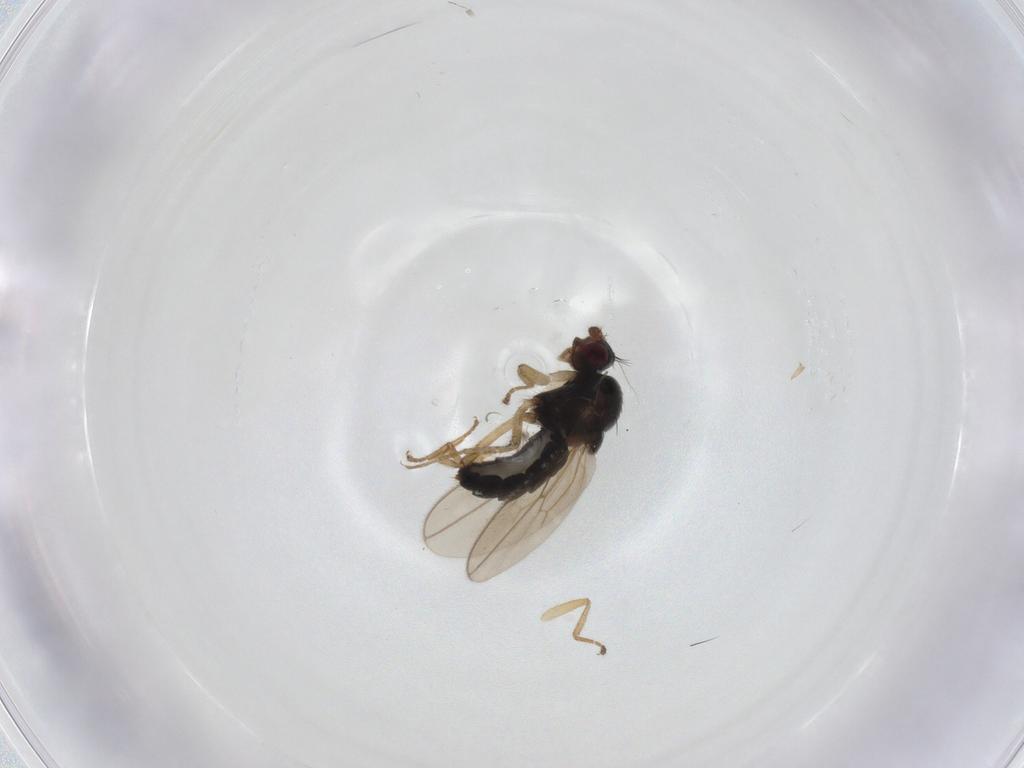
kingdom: Animalia
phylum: Arthropoda
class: Insecta
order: Diptera
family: Sphaeroceridae
